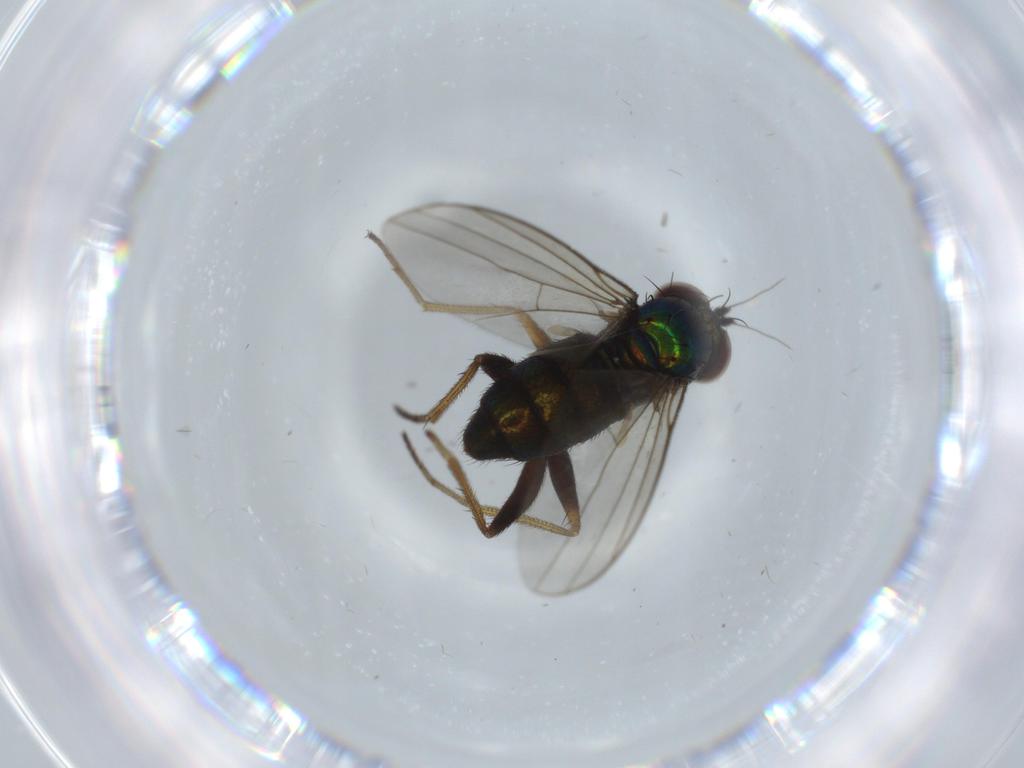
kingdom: Animalia
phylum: Arthropoda
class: Insecta
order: Diptera
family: Chironomidae
